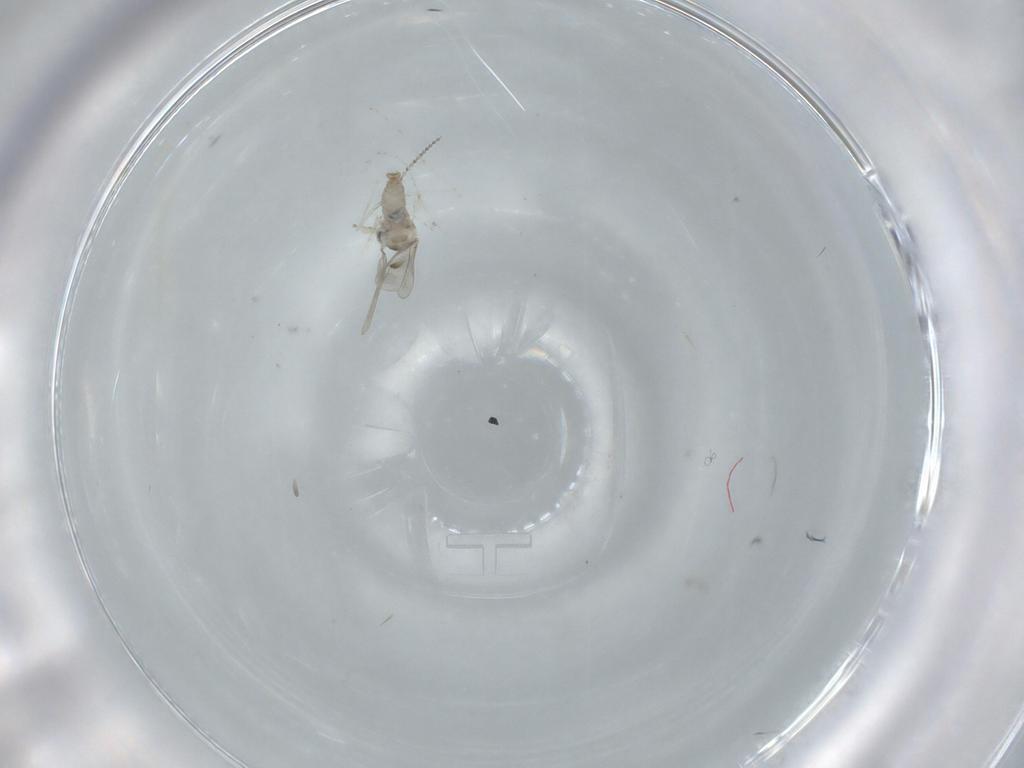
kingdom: Animalia
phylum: Arthropoda
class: Insecta
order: Diptera
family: Cecidomyiidae
